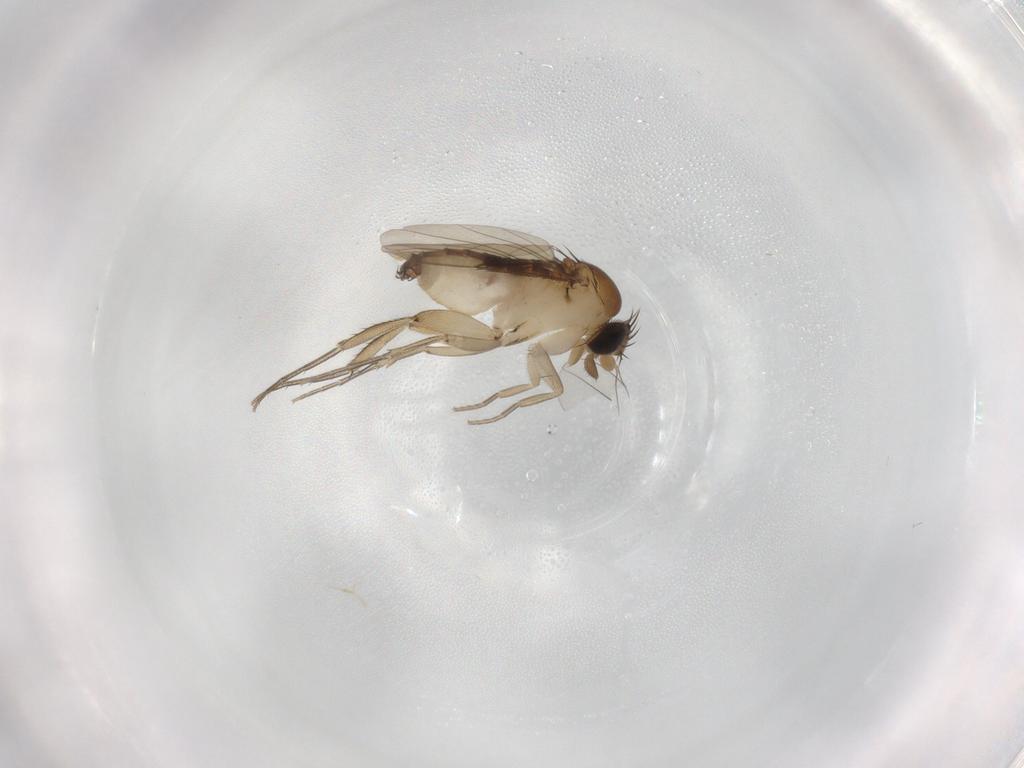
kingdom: Animalia
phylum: Arthropoda
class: Insecta
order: Diptera
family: Phoridae
